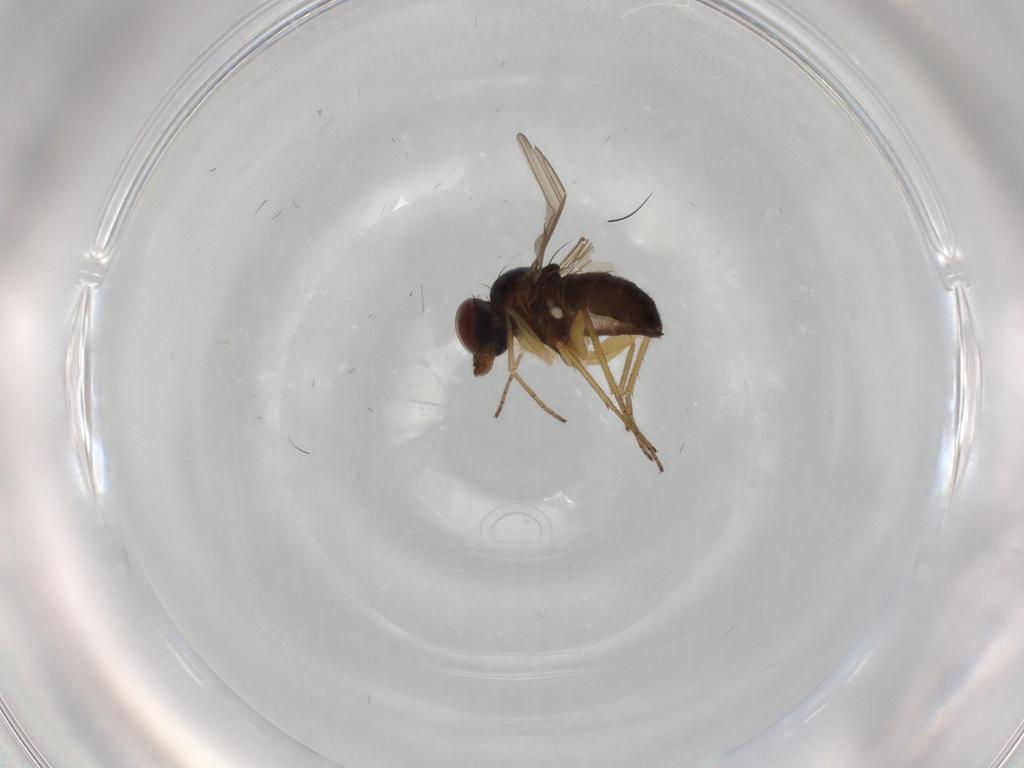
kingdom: Animalia
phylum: Arthropoda
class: Insecta
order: Diptera
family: Dolichopodidae
